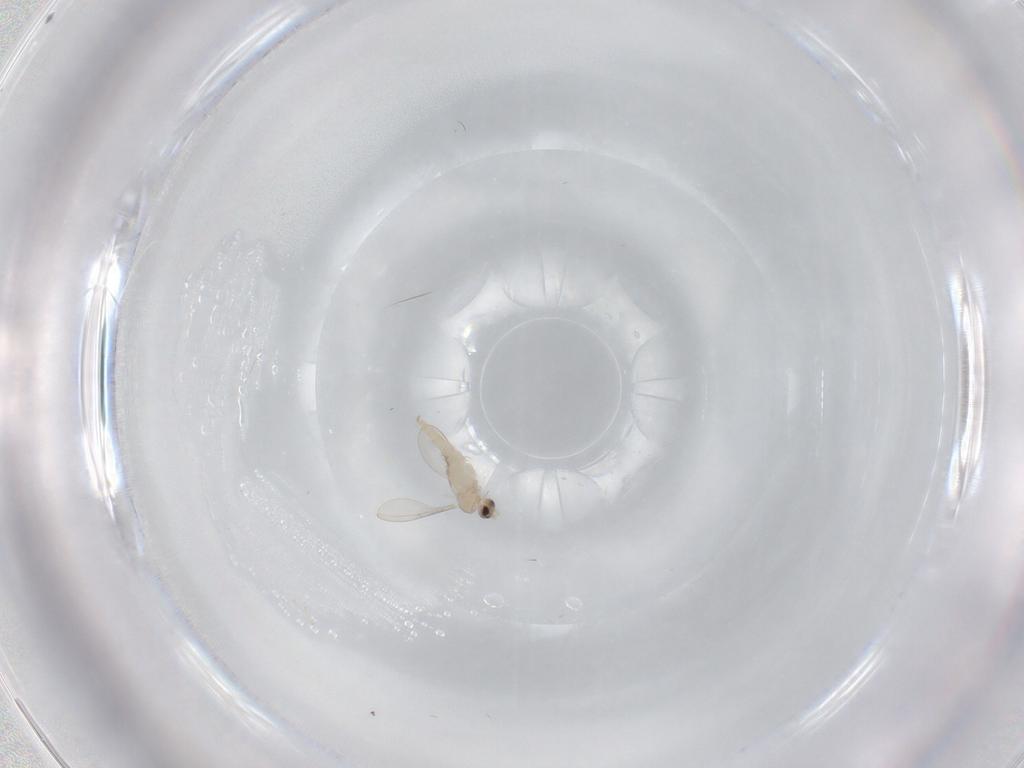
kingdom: Animalia
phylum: Arthropoda
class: Insecta
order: Diptera
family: Cecidomyiidae
